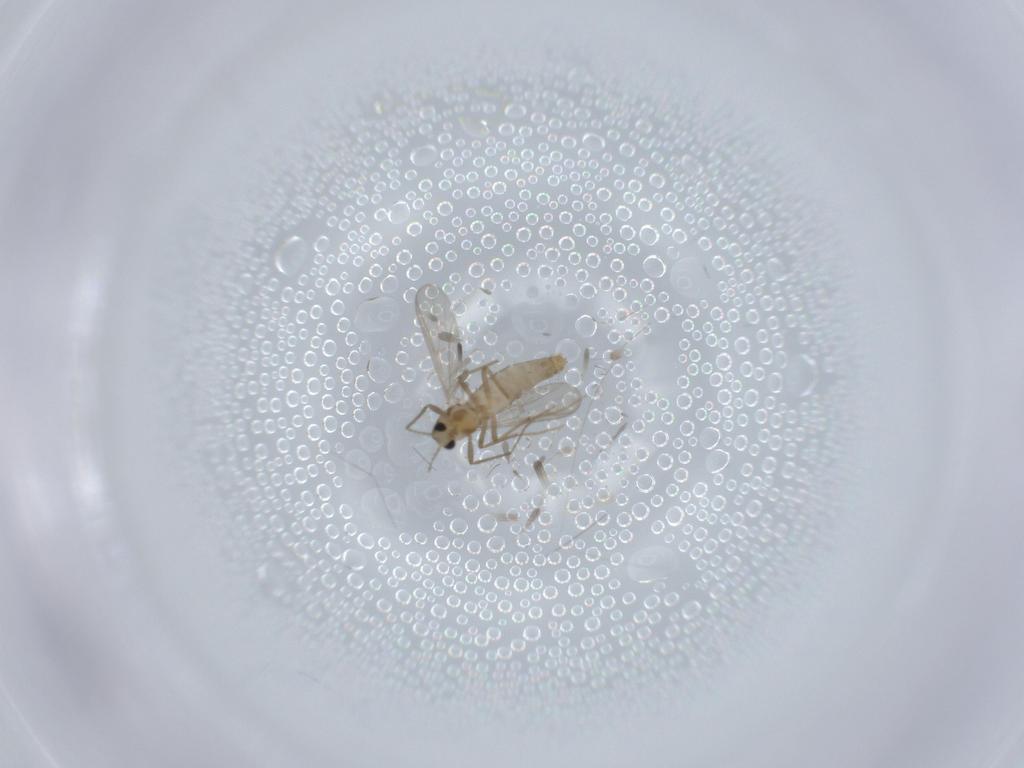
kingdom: Animalia
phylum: Arthropoda
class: Insecta
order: Diptera
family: Chironomidae
